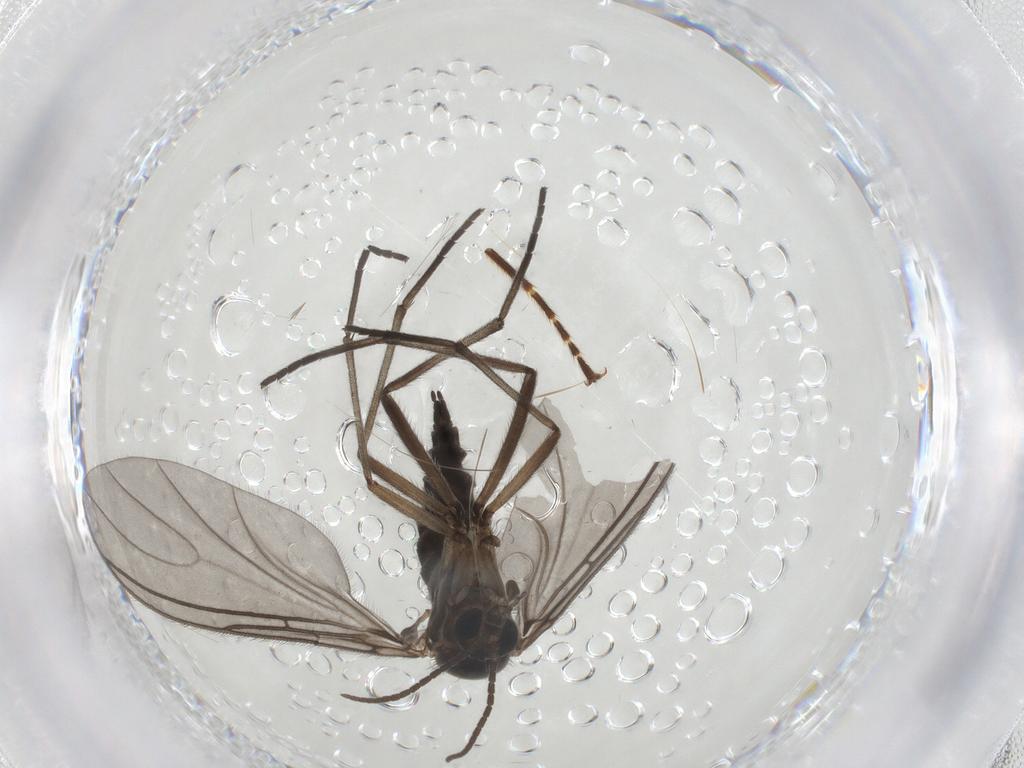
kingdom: Animalia
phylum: Arthropoda
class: Insecta
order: Diptera
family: Sciaridae
